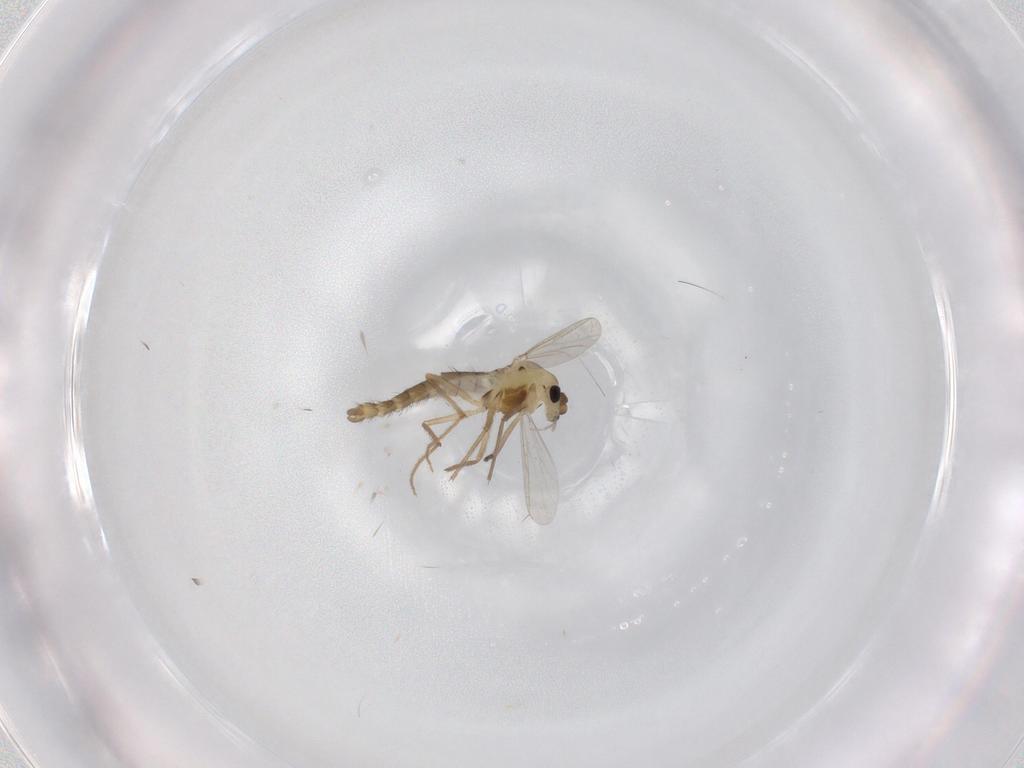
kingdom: Animalia
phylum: Arthropoda
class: Insecta
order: Diptera
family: Chironomidae
